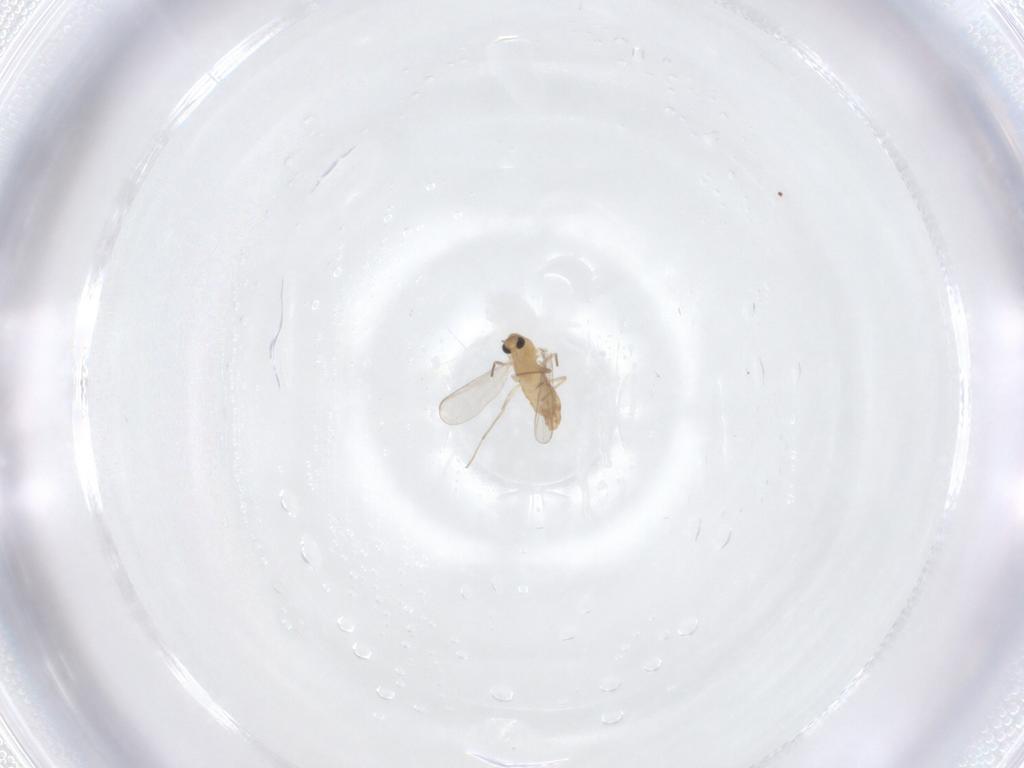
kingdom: Animalia
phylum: Arthropoda
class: Insecta
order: Diptera
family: Chironomidae
